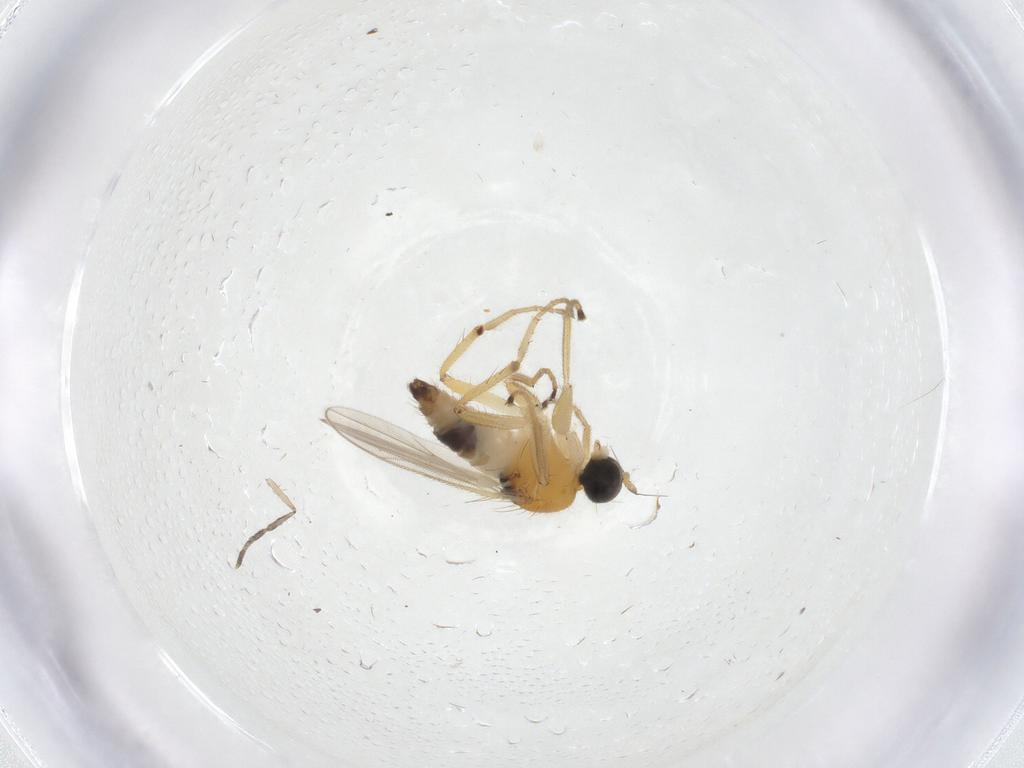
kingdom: Animalia
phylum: Arthropoda
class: Insecta
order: Diptera
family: Hybotidae
